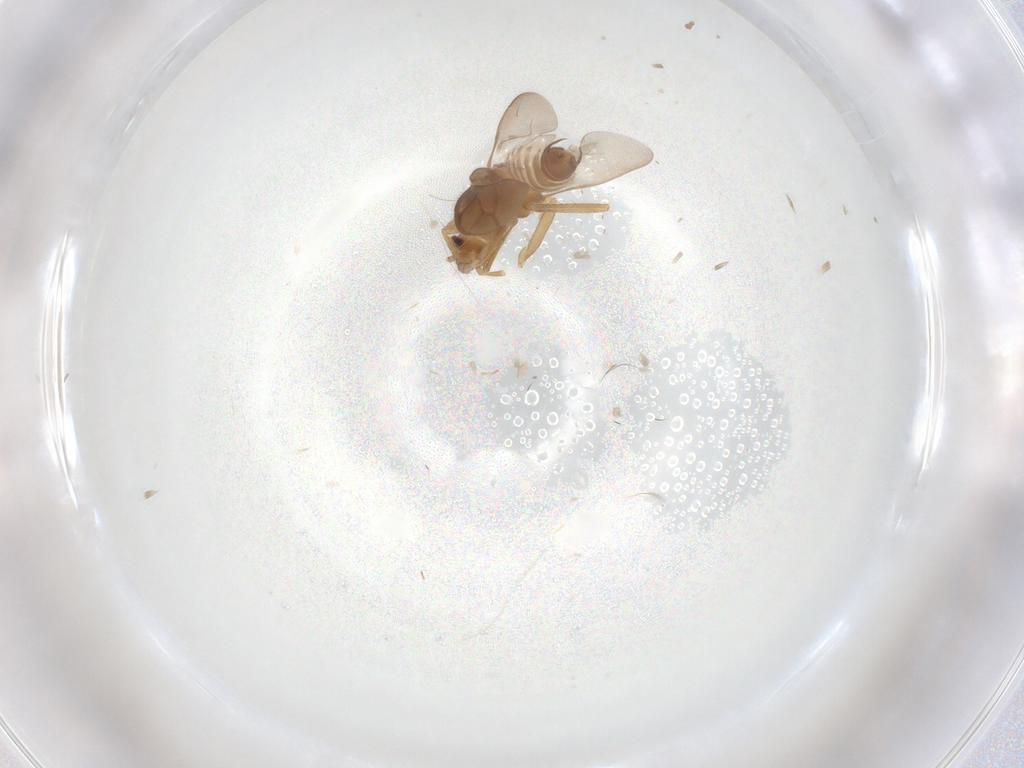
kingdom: Animalia
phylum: Arthropoda
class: Insecta
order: Hemiptera
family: Ceratocombidae
